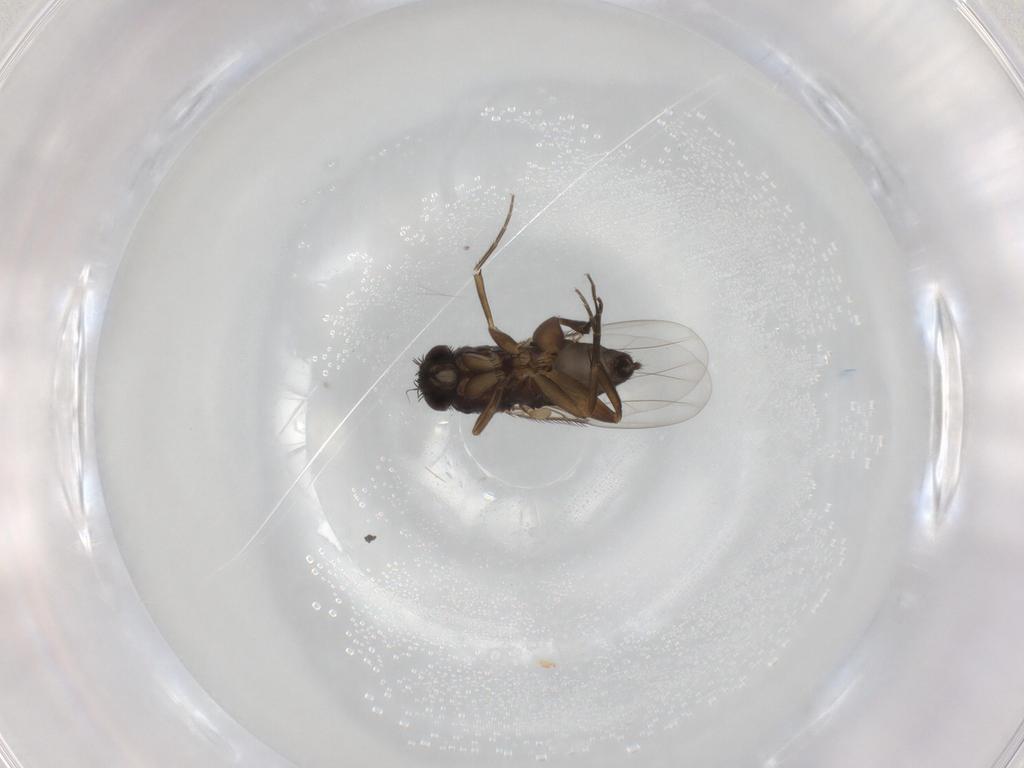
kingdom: Animalia
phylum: Arthropoda
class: Insecta
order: Diptera
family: Phoridae
